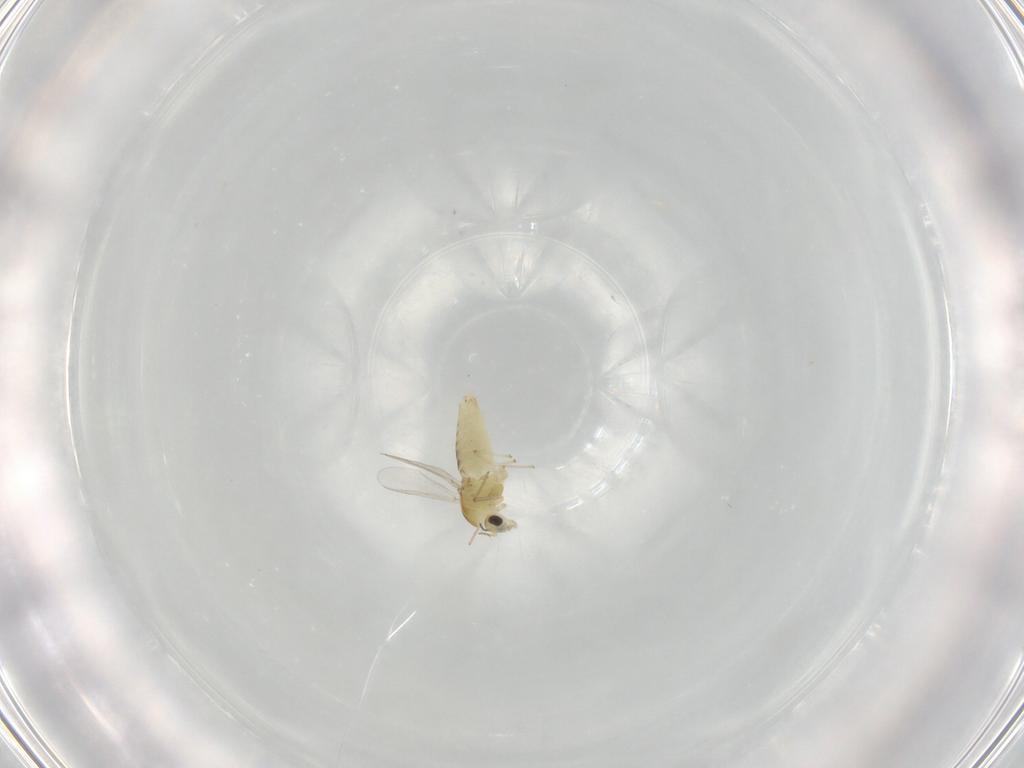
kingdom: Animalia
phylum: Arthropoda
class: Insecta
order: Diptera
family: Chironomidae
